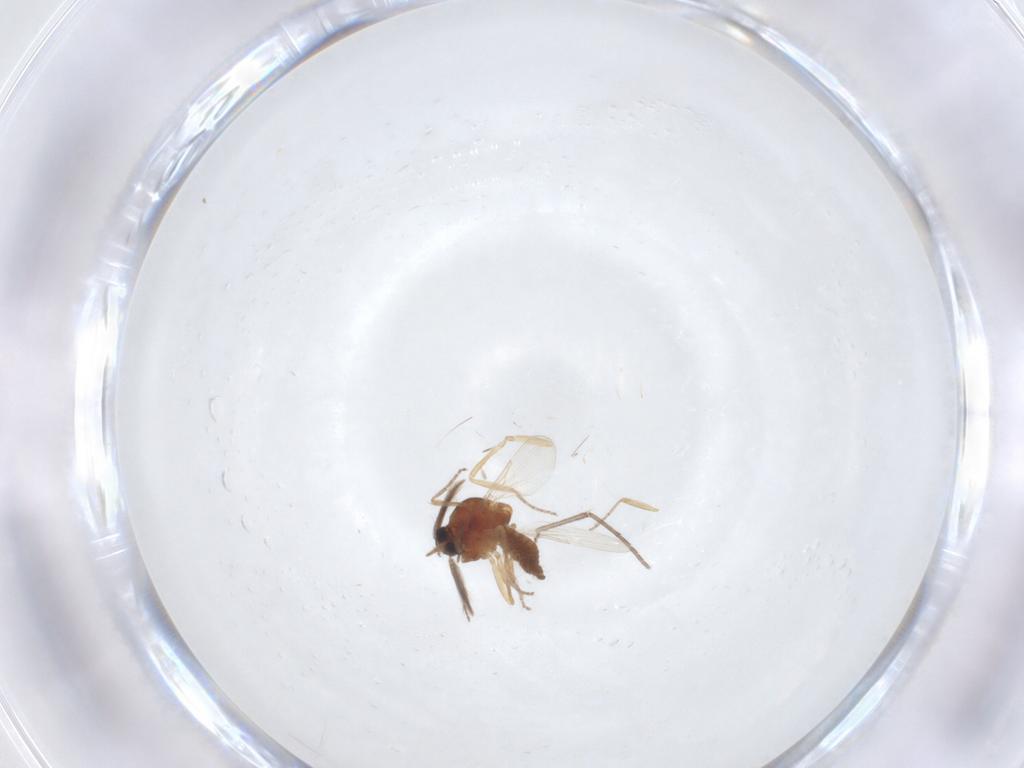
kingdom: Animalia
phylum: Arthropoda
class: Insecta
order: Diptera
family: Ceratopogonidae
